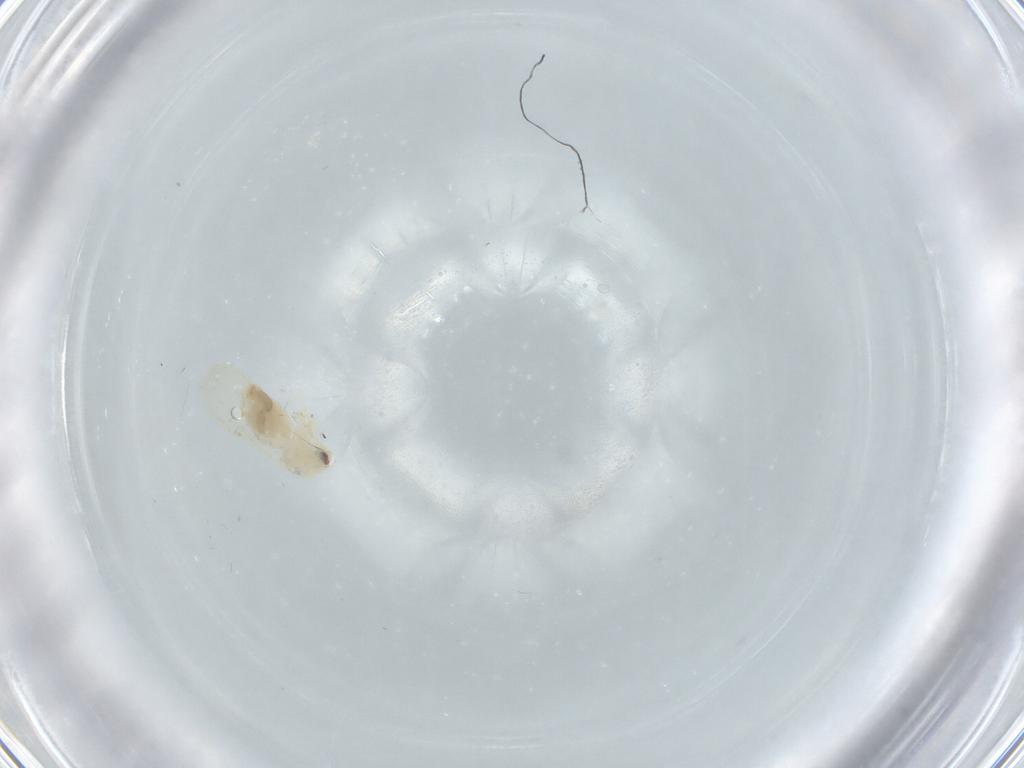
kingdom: Animalia
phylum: Arthropoda
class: Insecta
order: Hemiptera
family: Aleyrodidae
